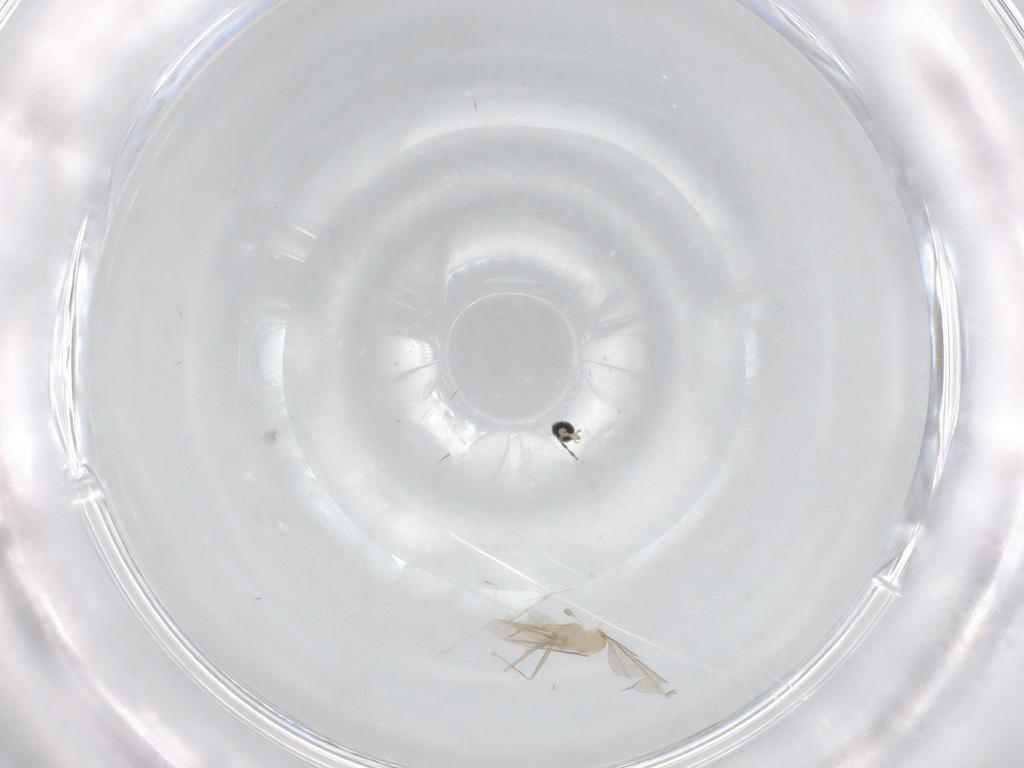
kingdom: Animalia
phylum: Arthropoda
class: Insecta
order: Diptera
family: Cecidomyiidae
